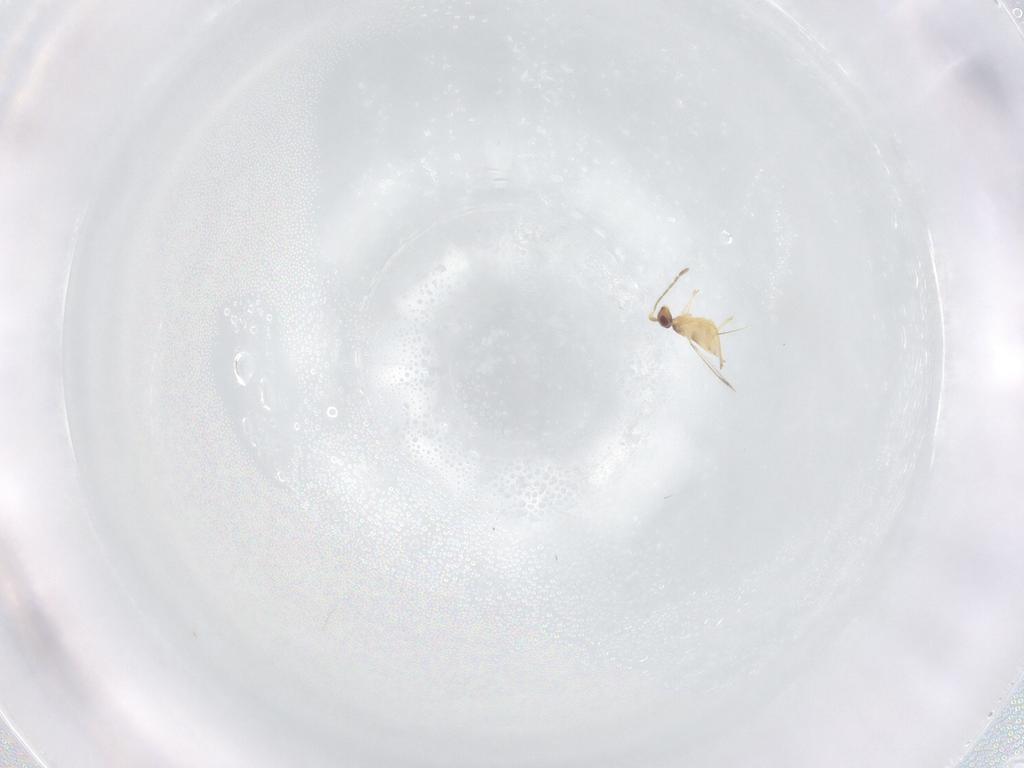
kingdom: Animalia
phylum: Arthropoda
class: Insecta
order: Hymenoptera
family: Mymaridae
